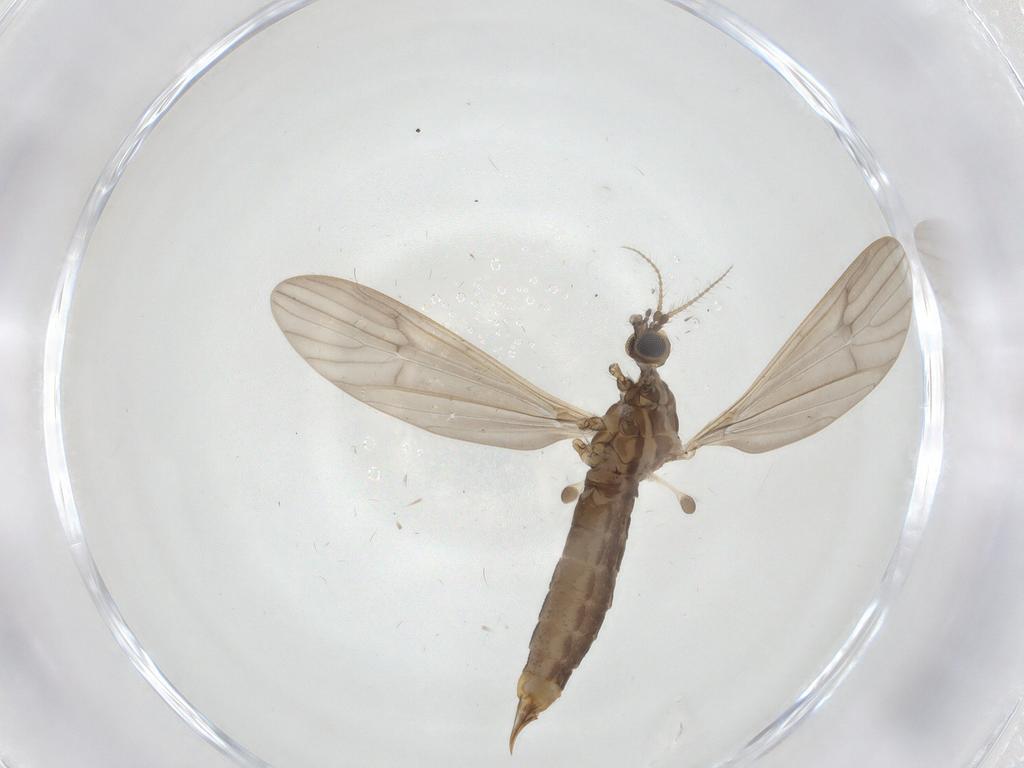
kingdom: Animalia
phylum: Arthropoda
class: Insecta
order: Diptera
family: Limoniidae
